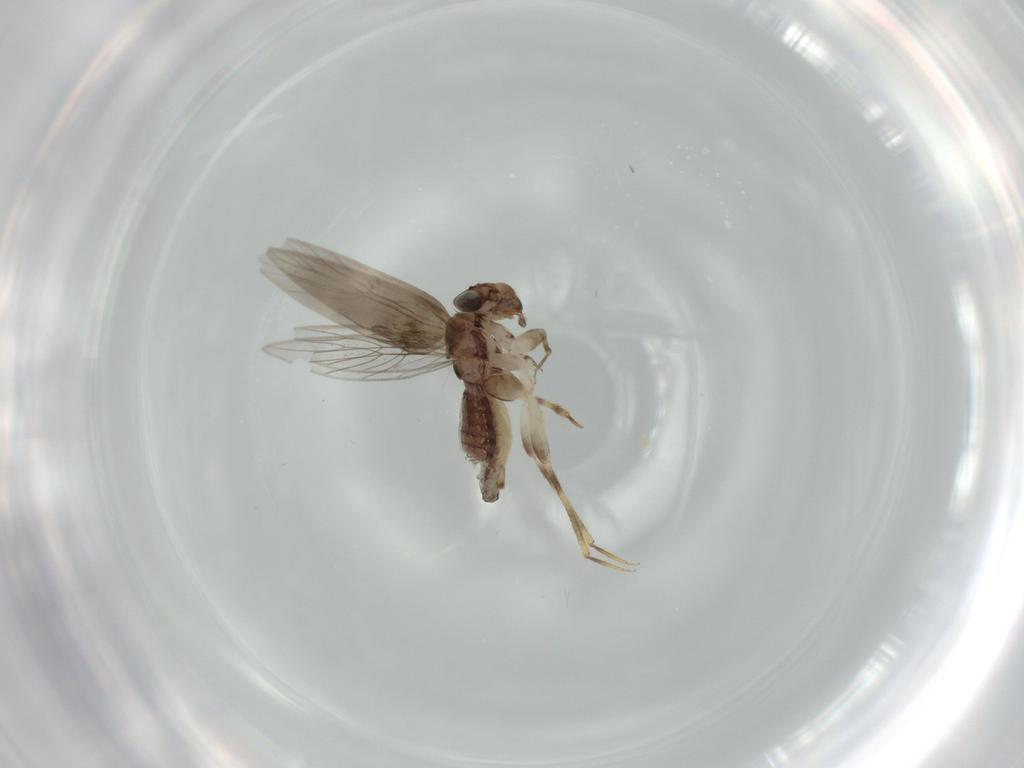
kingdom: Animalia
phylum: Arthropoda
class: Insecta
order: Psocodea
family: Lepidopsocidae
